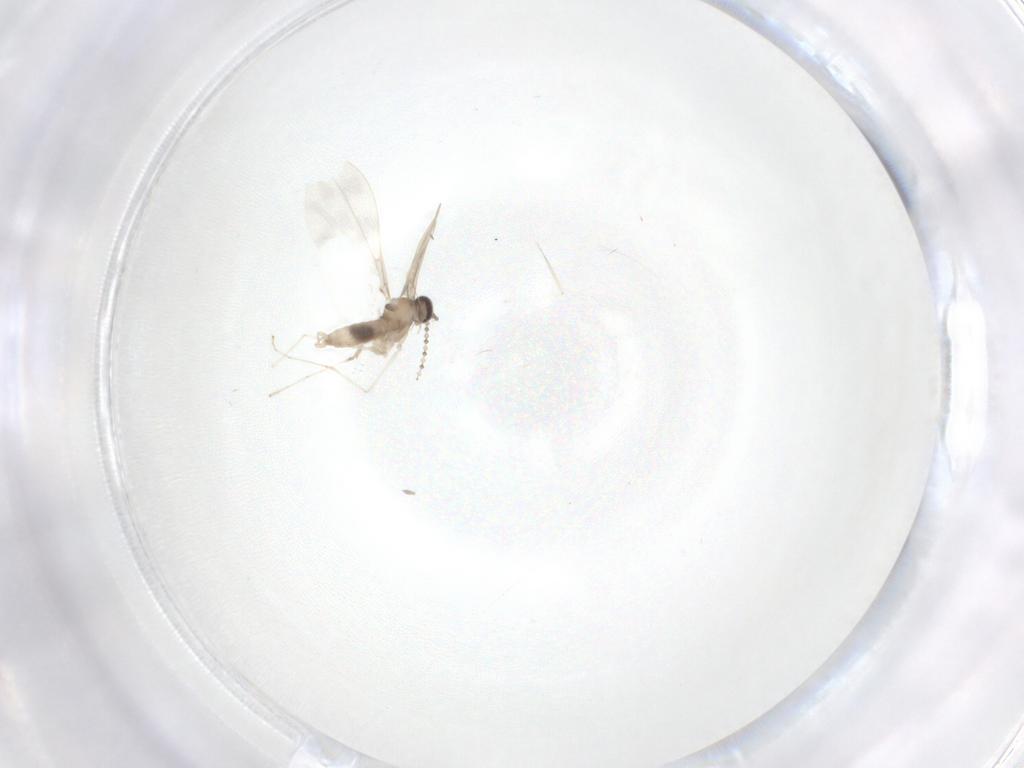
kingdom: Animalia
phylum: Arthropoda
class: Insecta
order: Diptera
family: Cecidomyiidae
